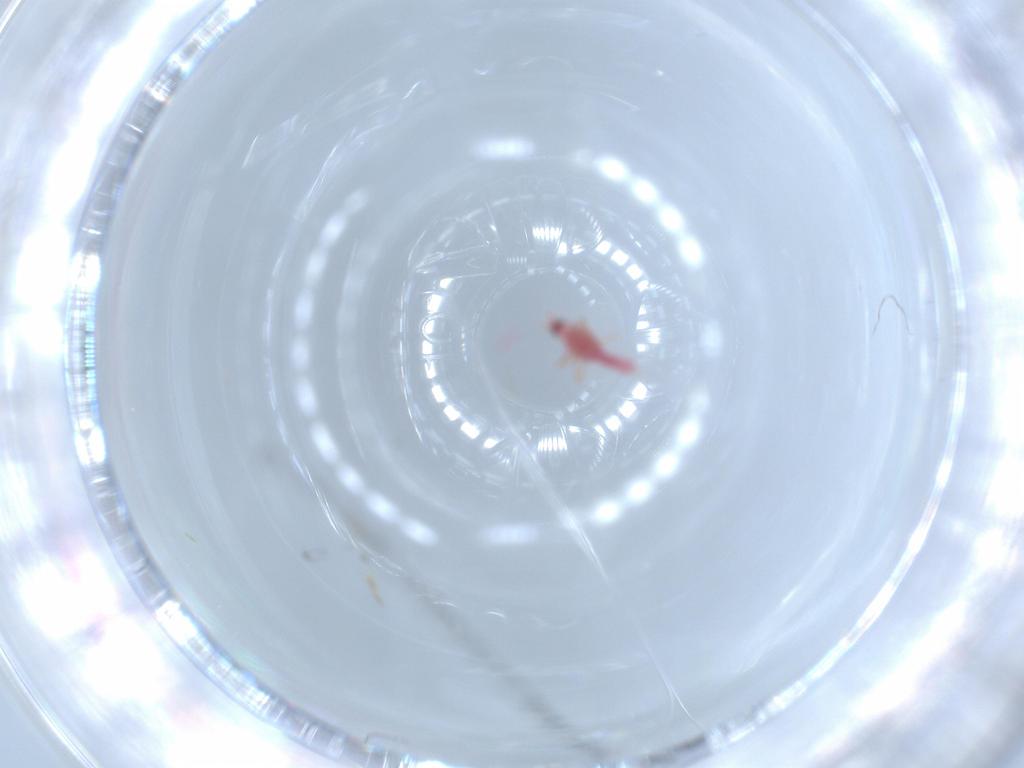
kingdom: Animalia
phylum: Arthropoda
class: Insecta
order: Hemiptera
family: Pseudococcidae
